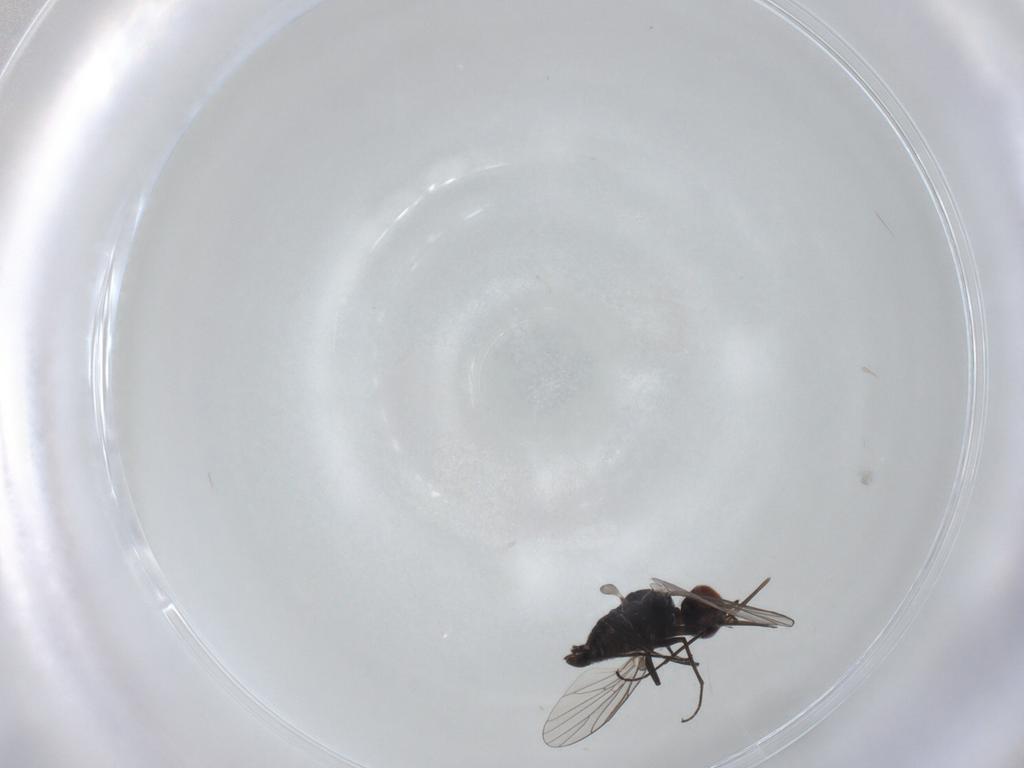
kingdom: Animalia
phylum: Arthropoda
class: Insecta
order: Diptera
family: Bombyliidae
